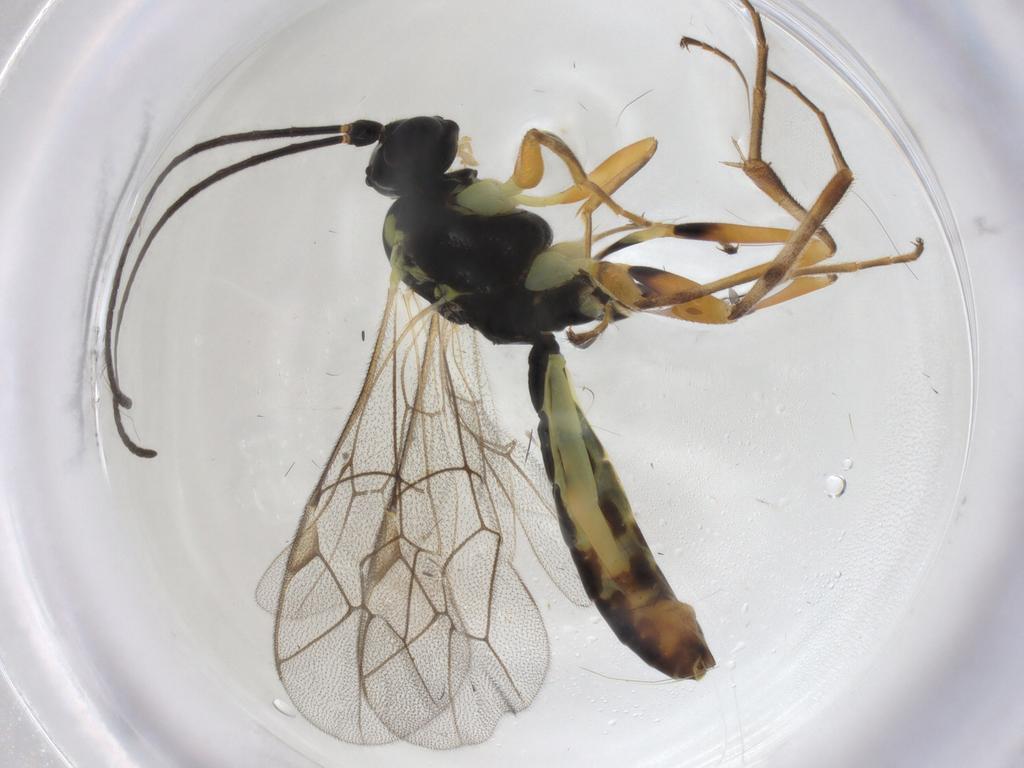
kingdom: Animalia
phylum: Arthropoda
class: Insecta
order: Hymenoptera
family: Ichneumonidae
